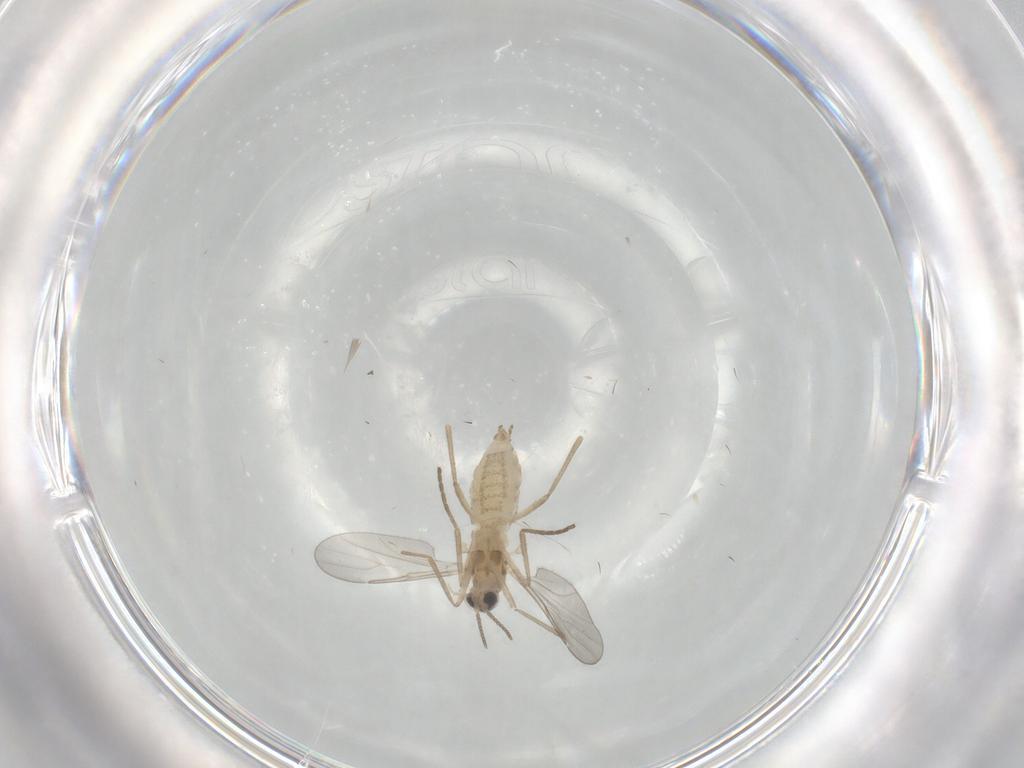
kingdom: Animalia
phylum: Arthropoda
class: Insecta
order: Diptera
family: Cecidomyiidae
